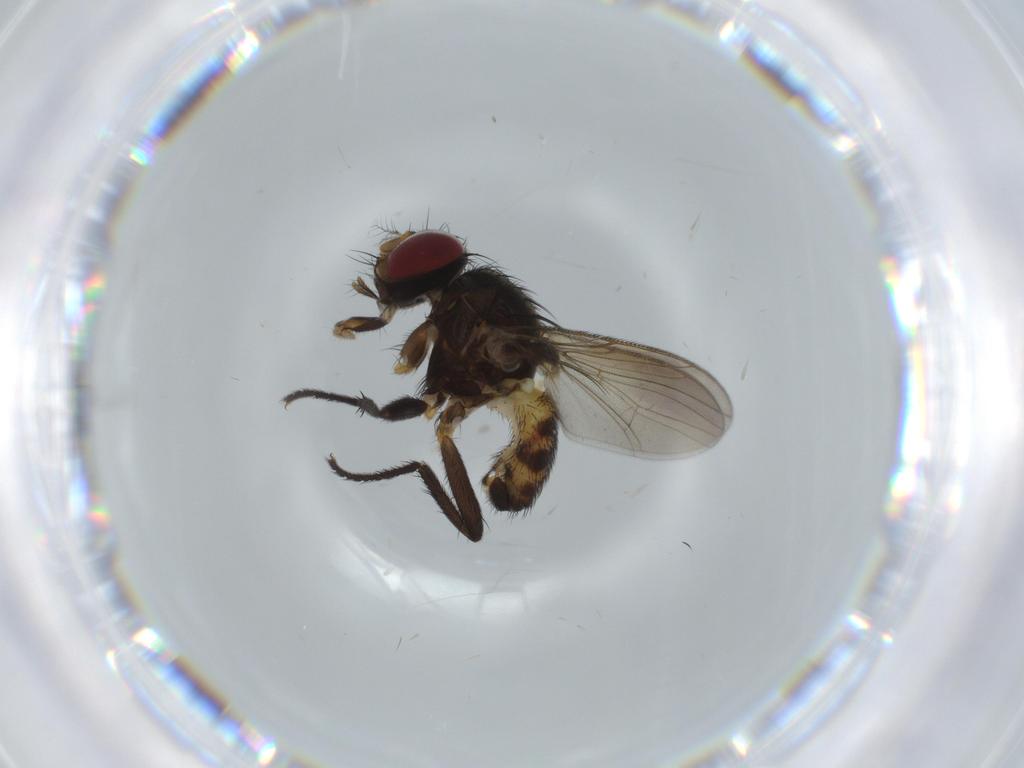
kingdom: Animalia
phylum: Arthropoda
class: Insecta
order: Diptera
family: Anthomyiidae
